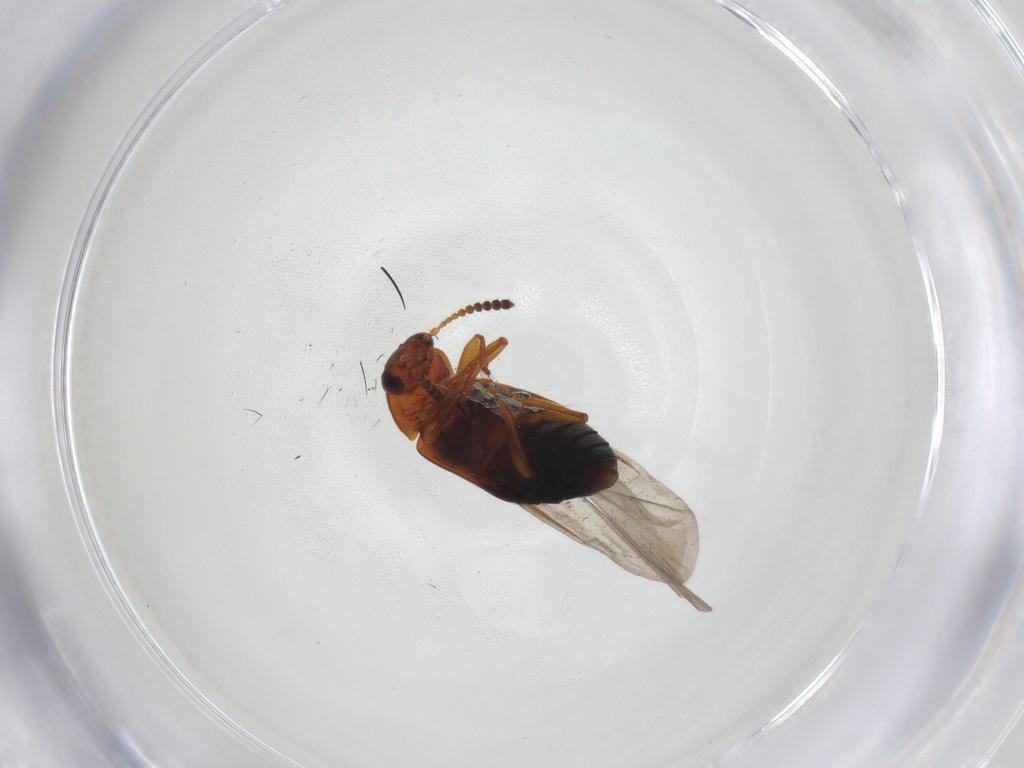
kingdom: Animalia
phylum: Arthropoda
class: Insecta
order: Coleoptera
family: Staphylinidae
